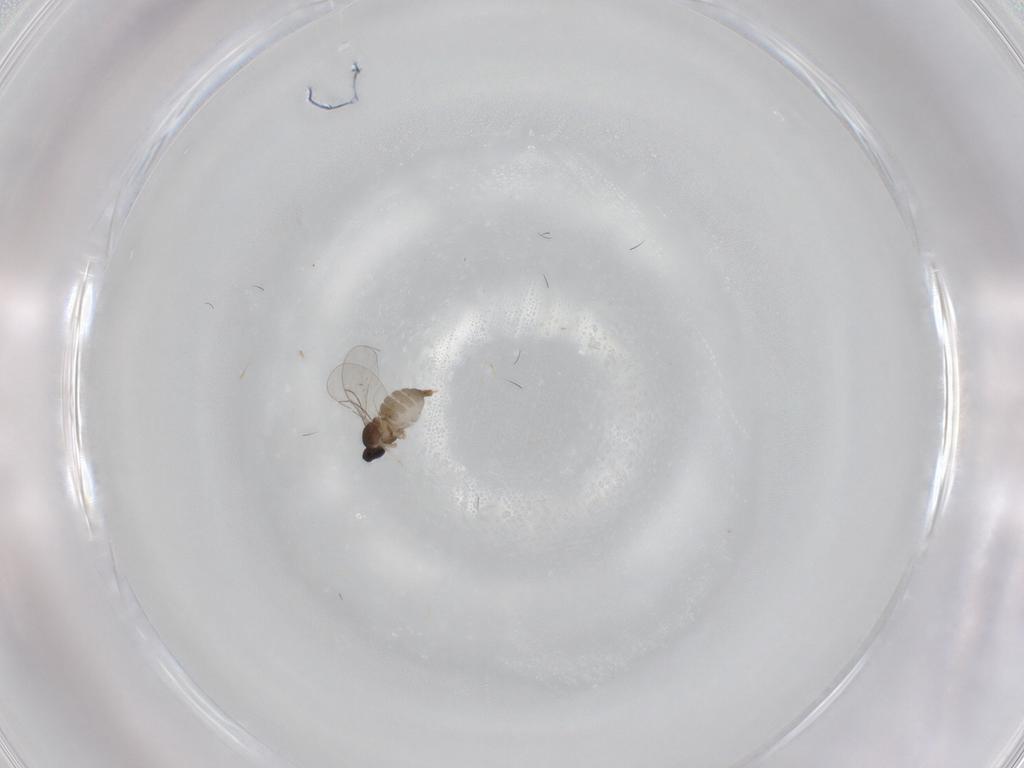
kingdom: Animalia
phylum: Arthropoda
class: Insecta
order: Diptera
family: Cecidomyiidae
